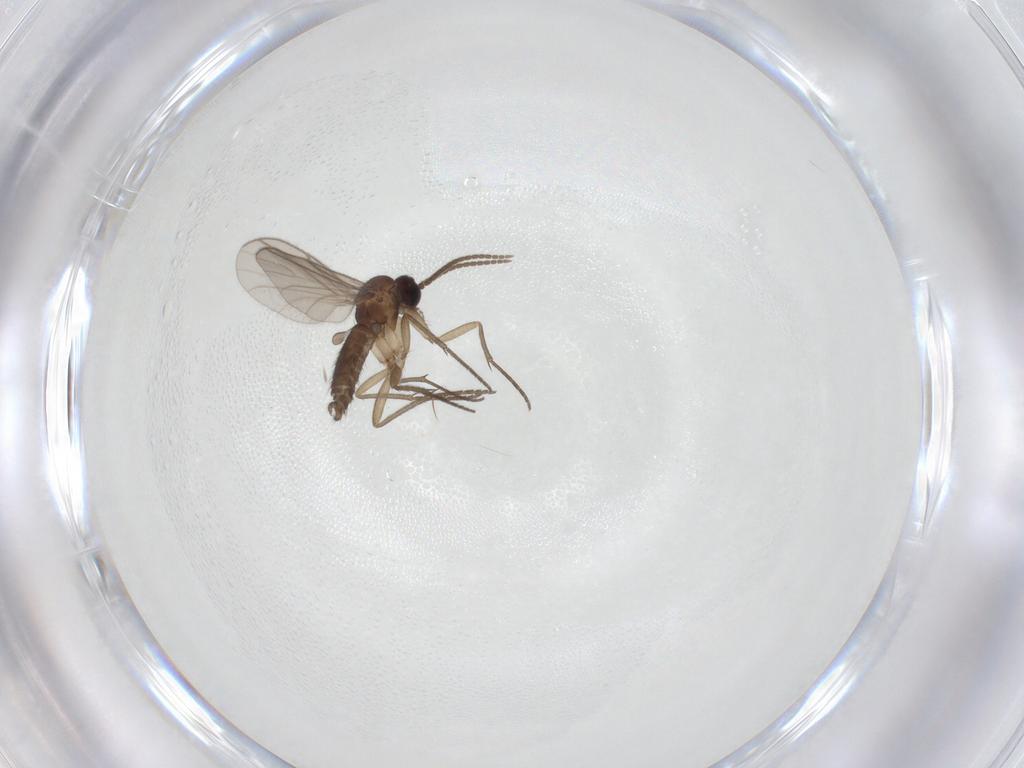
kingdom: Animalia
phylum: Arthropoda
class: Insecta
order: Diptera
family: Sciaridae
